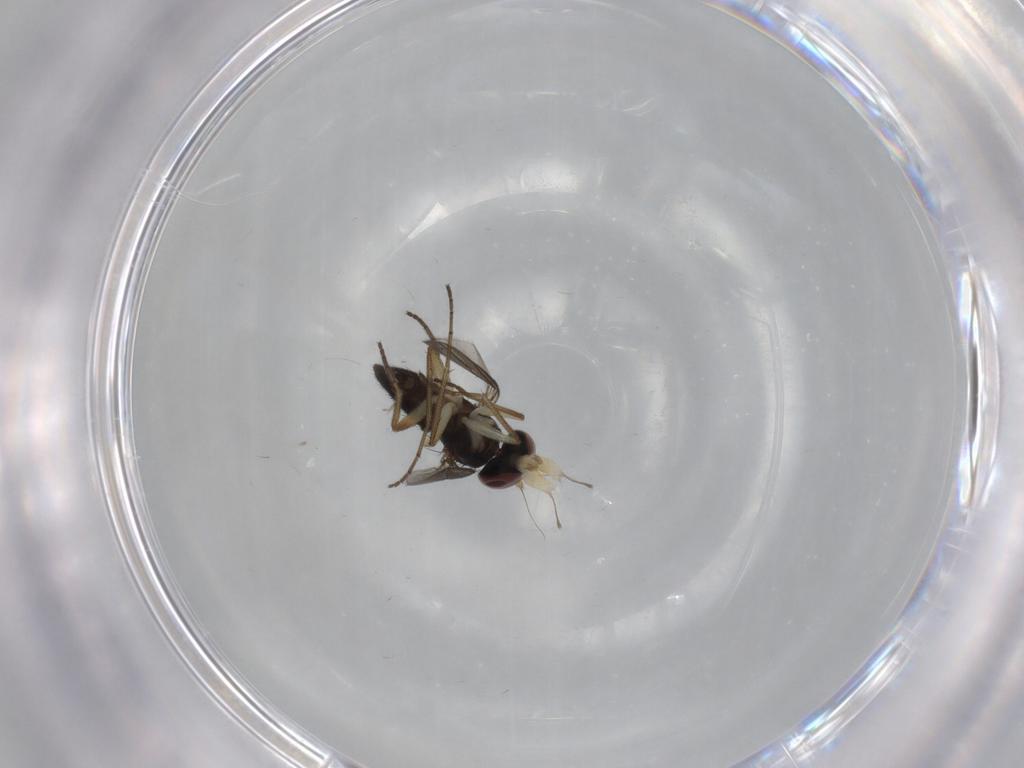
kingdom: Animalia
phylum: Arthropoda
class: Insecta
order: Diptera
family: Dolichopodidae
